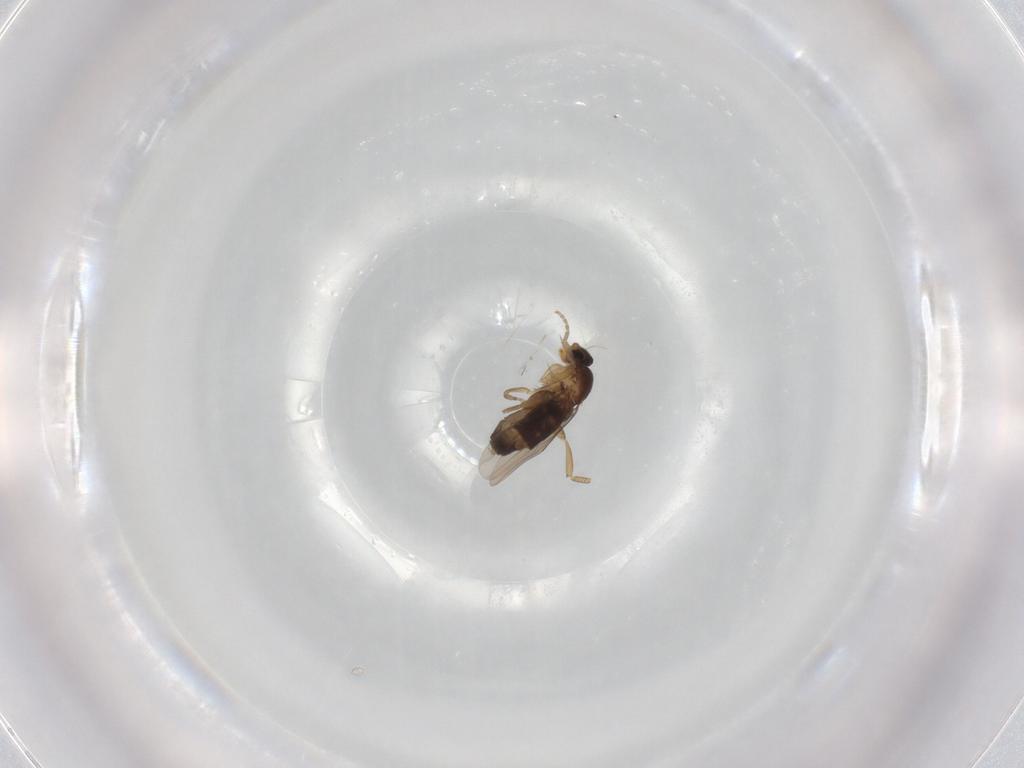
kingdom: Animalia
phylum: Arthropoda
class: Insecta
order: Diptera
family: Phoridae
